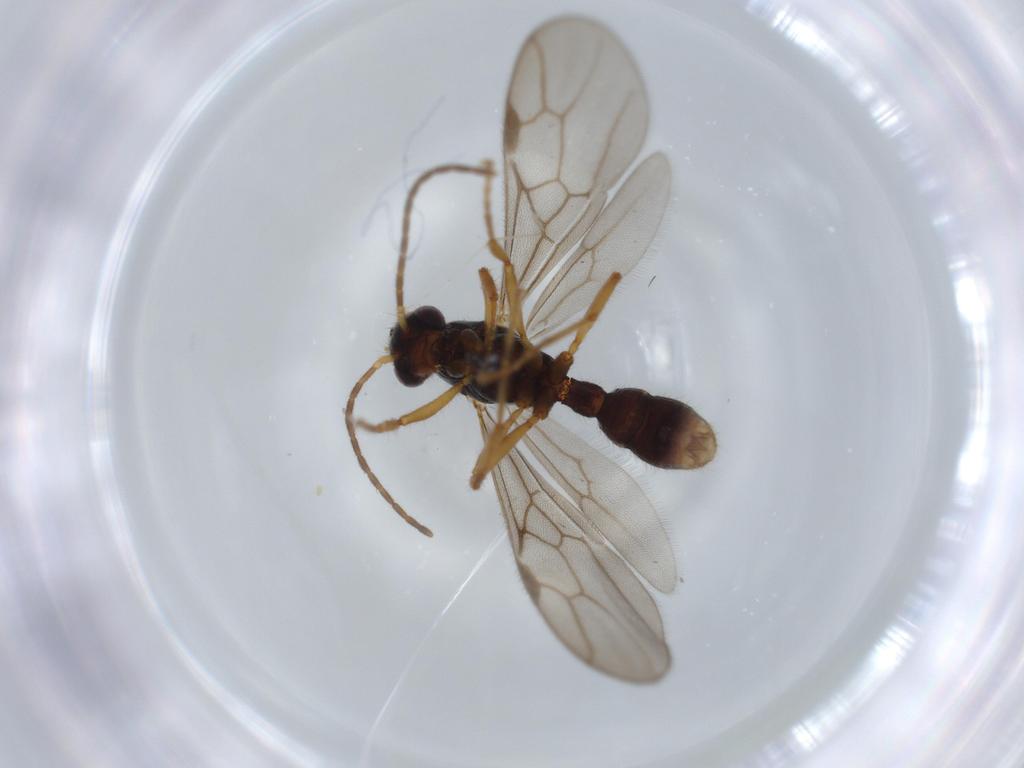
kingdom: Animalia
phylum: Arthropoda
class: Insecta
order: Hymenoptera
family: Formicidae
